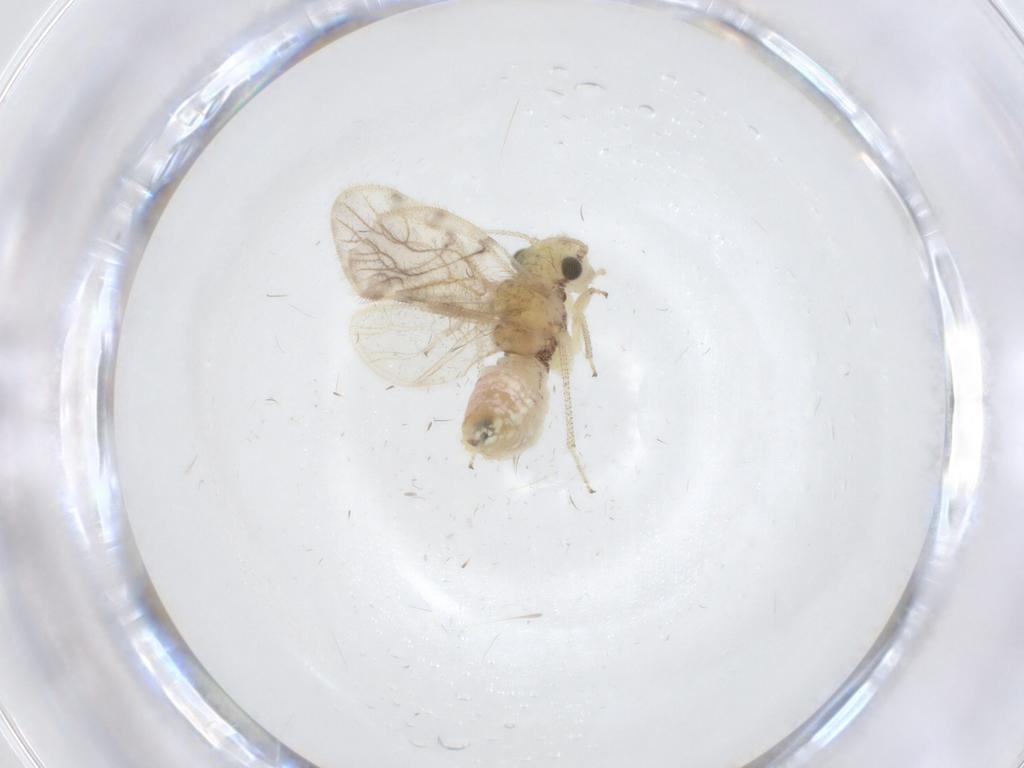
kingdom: Animalia
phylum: Arthropoda
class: Insecta
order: Psocodea
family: Pseudocaeciliidae
